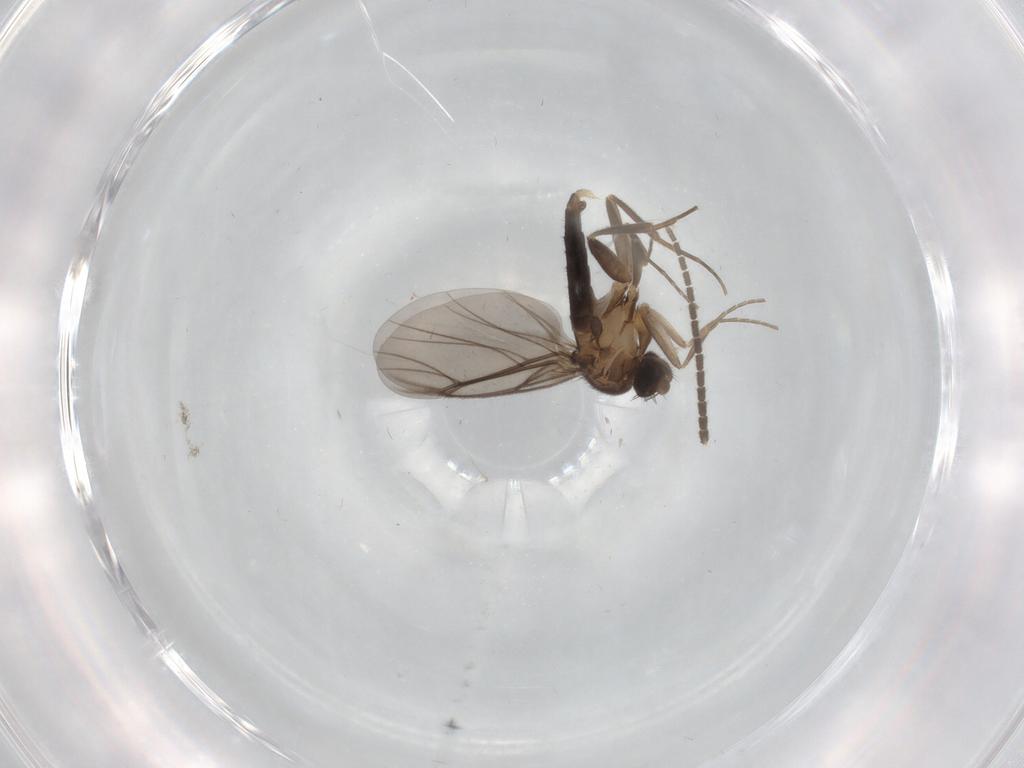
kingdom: Animalia
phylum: Arthropoda
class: Insecta
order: Diptera
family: Sciaridae
